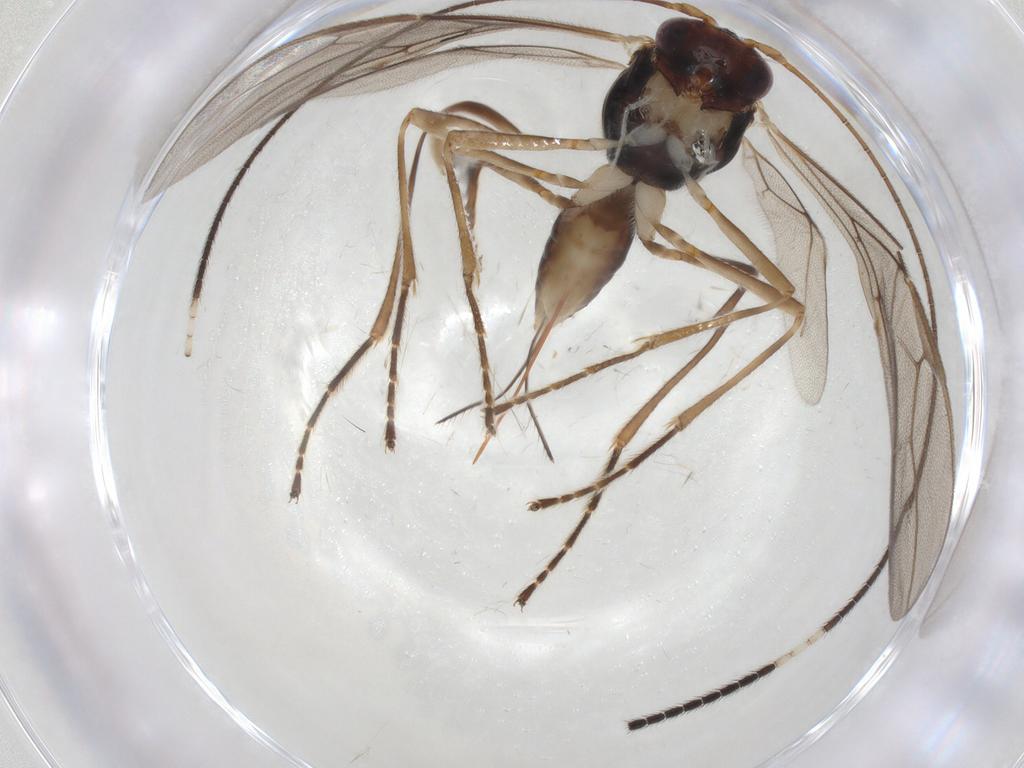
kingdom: Animalia
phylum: Arthropoda
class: Insecta
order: Hymenoptera
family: Braconidae
